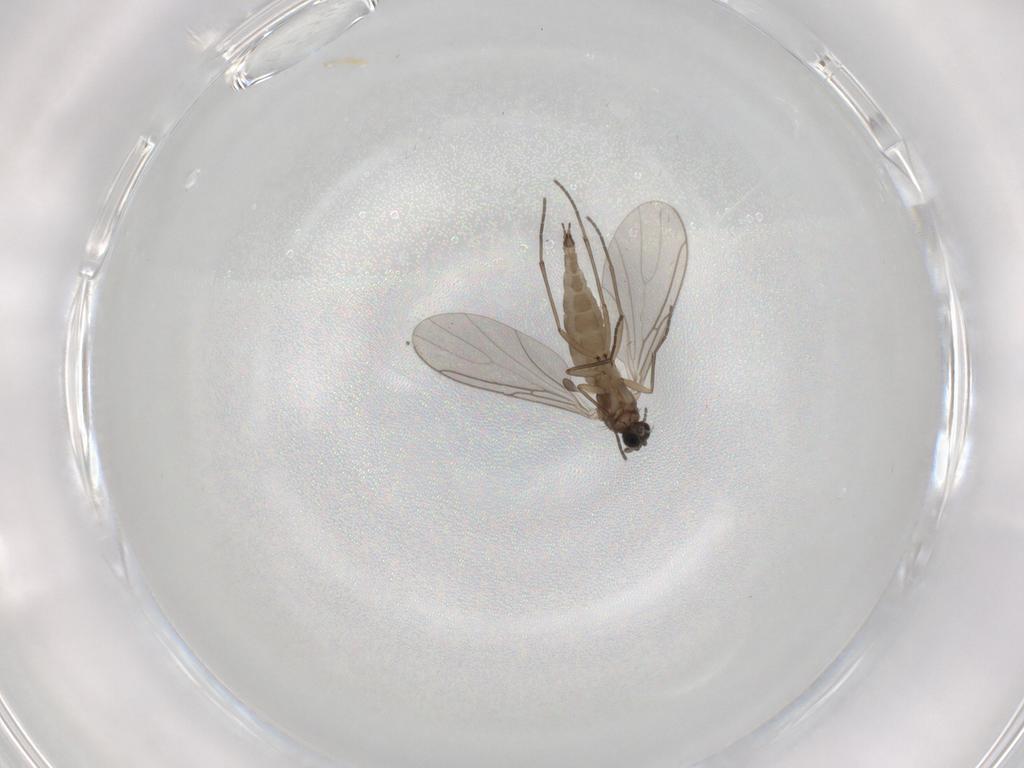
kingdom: Animalia
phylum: Arthropoda
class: Insecta
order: Diptera
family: Sciaridae
